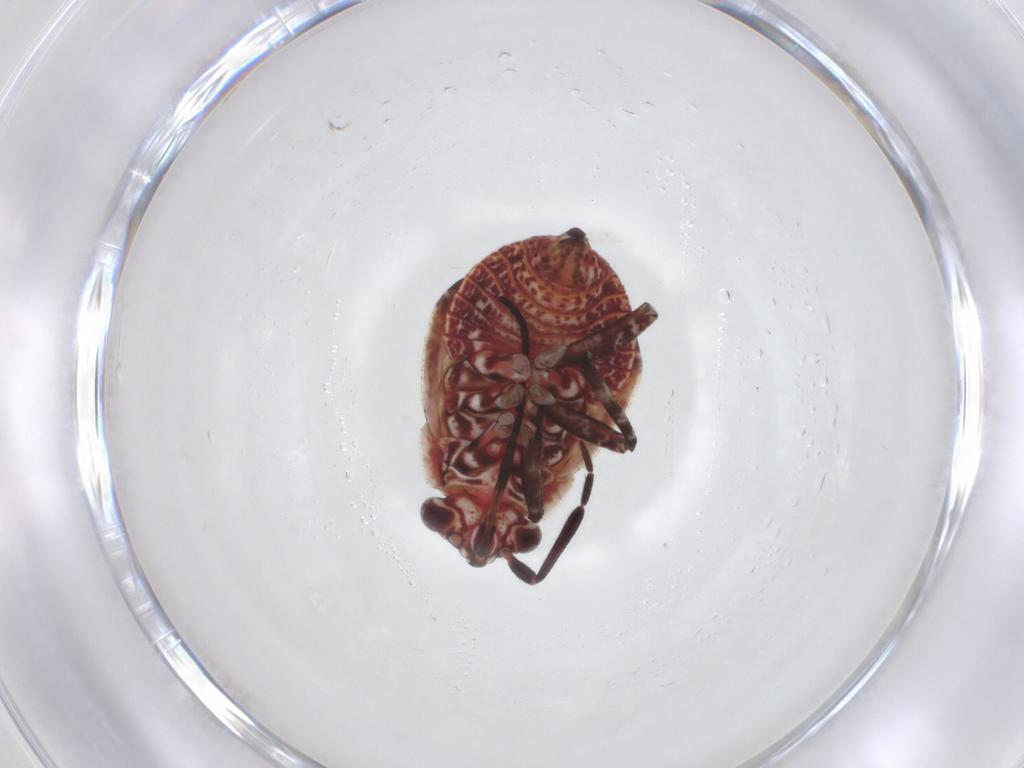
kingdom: Animalia
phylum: Arthropoda
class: Insecta
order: Hemiptera
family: Miridae
